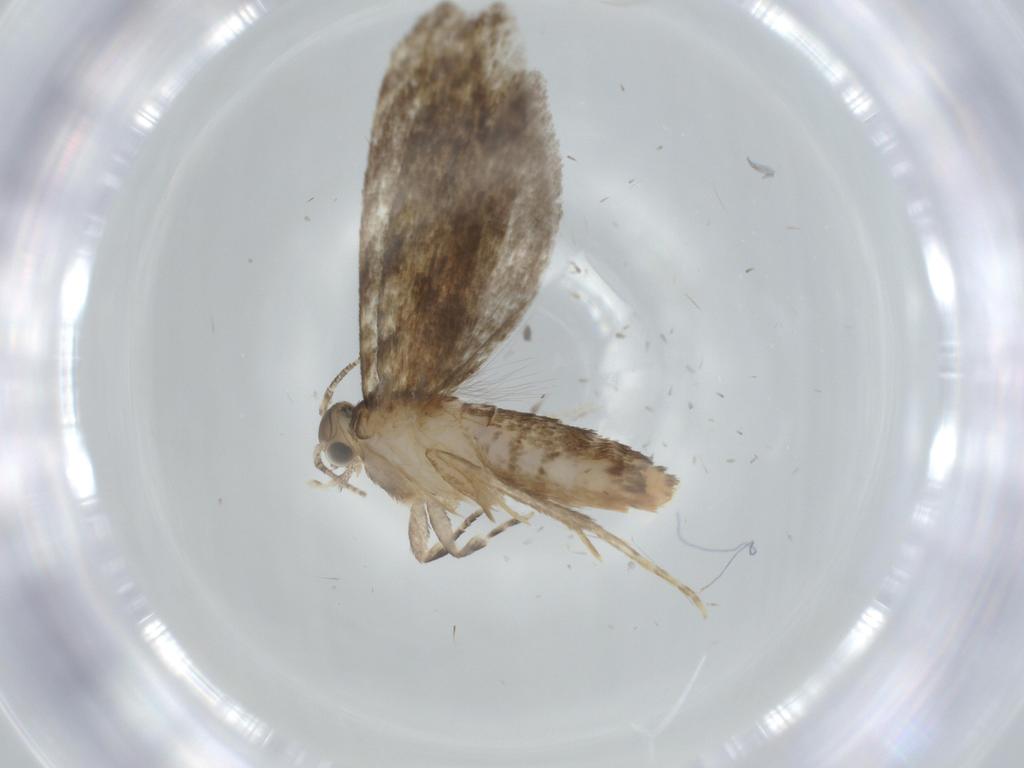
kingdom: Animalia
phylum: Arthropoda
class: Insecta
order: Lepidoptera
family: Tineidae
